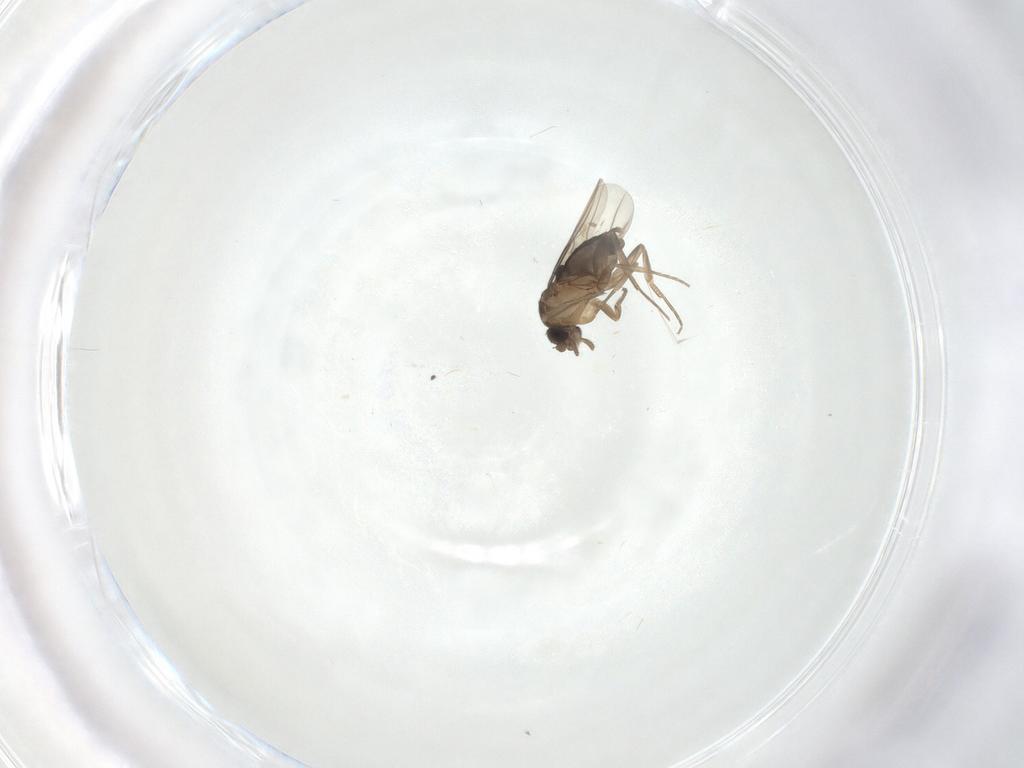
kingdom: Animalia
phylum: Arthropoda
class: Insecta
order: Diptera
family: Phoridae
